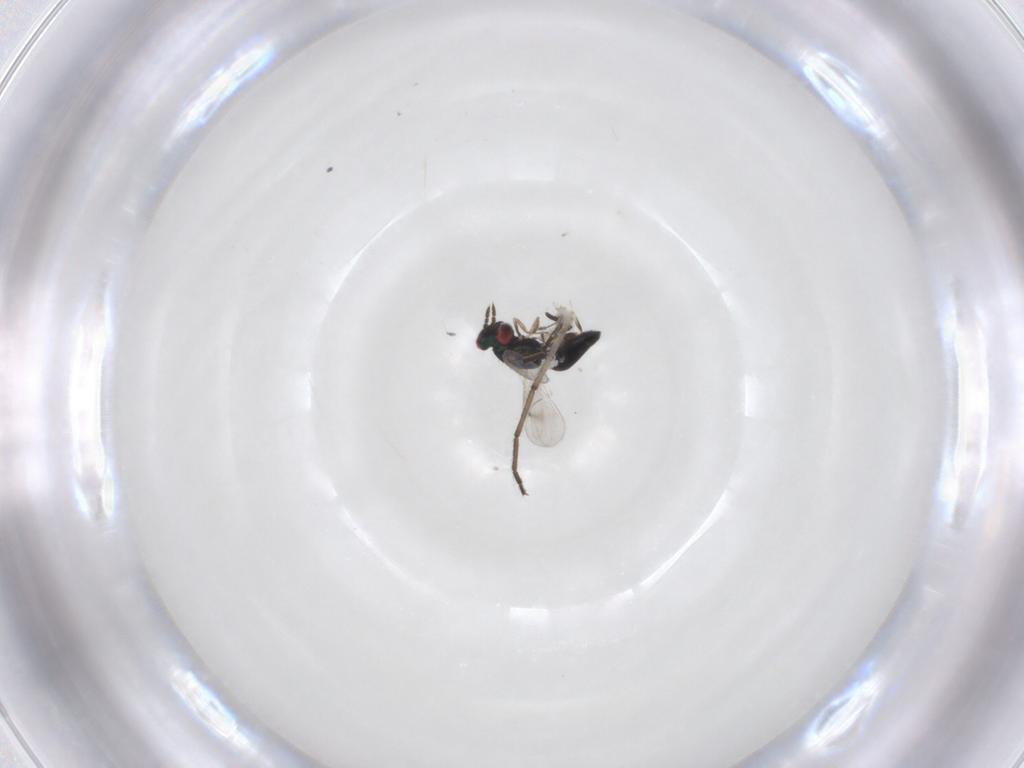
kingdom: Animalia
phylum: Arthropoda
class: Insecta
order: Hymenoptera
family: Eulophidae
